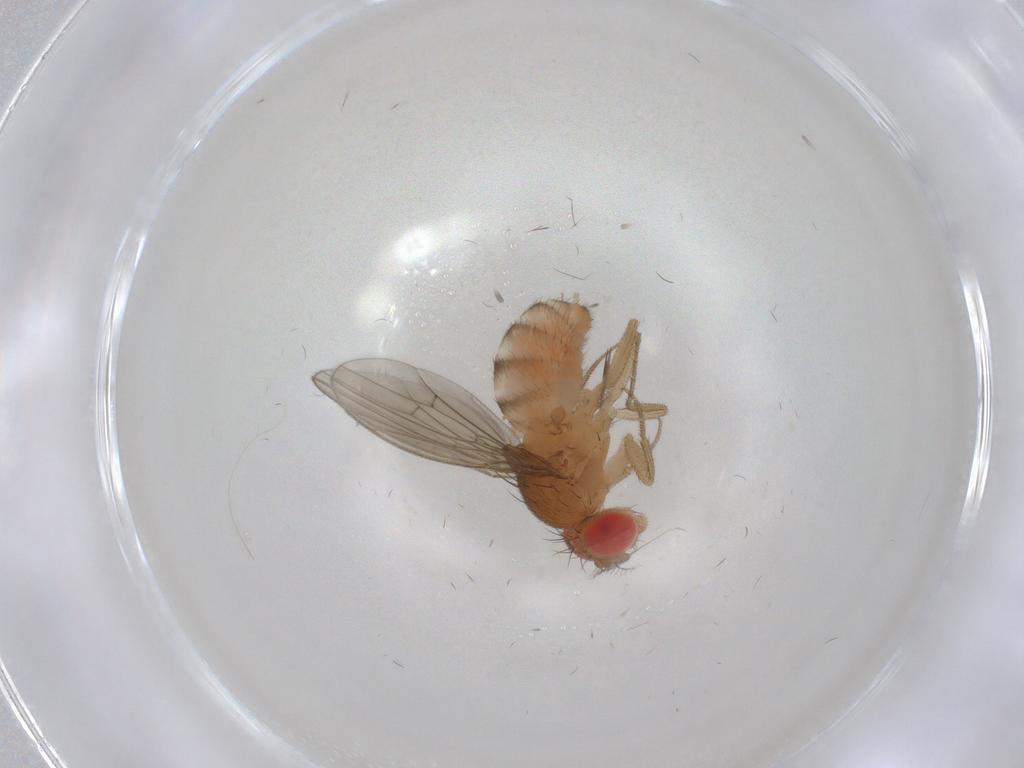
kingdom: Animalia
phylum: Arthropoda
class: Insecta
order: Diptera
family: Drosophilidae
